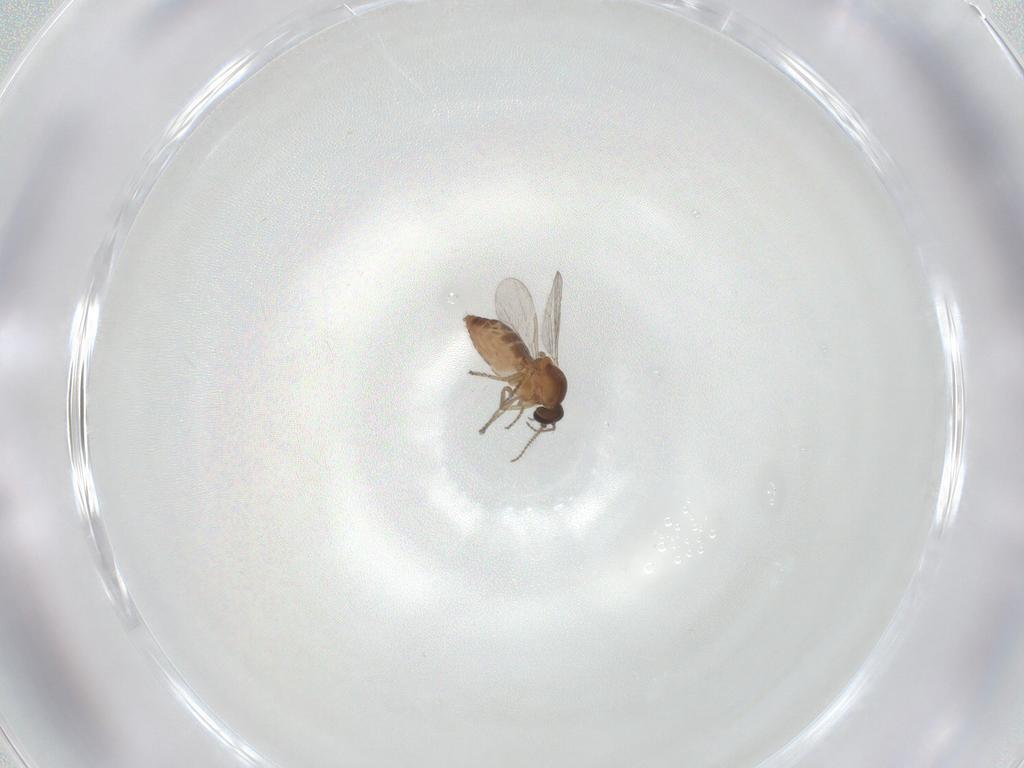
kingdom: Animalia
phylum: Arthropoda
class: Insecta
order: Diptera
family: Ceratopogonidae
